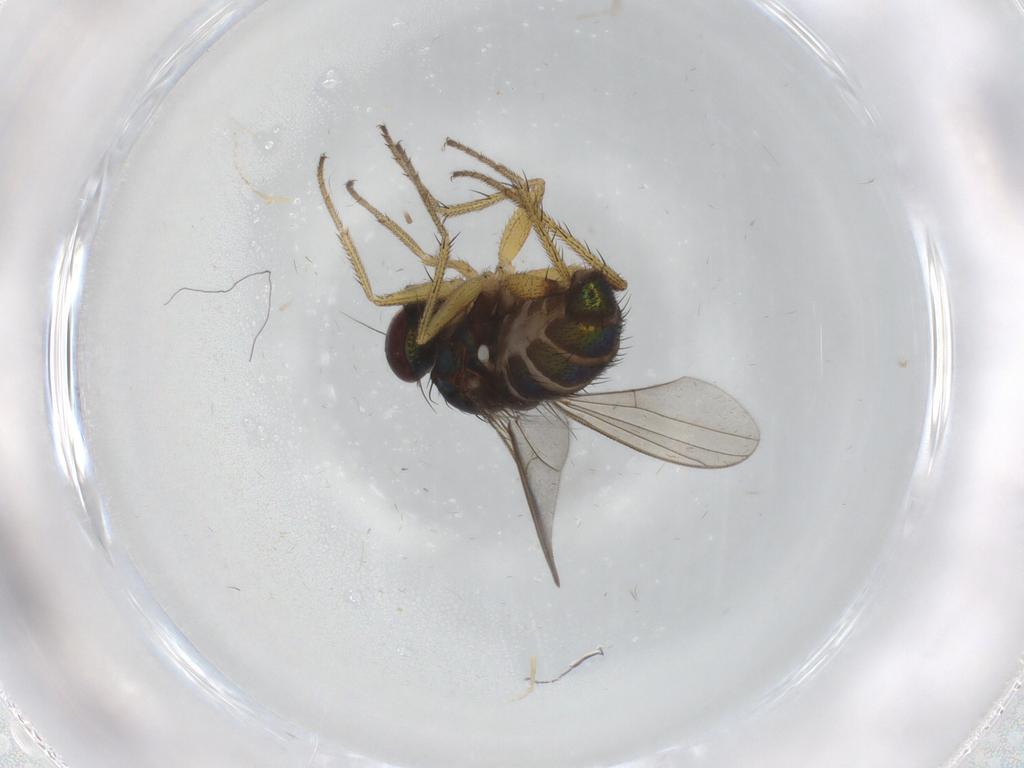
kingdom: Animalia
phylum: Arthropoda
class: Insecta
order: Diptera
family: Dolichopodidae
